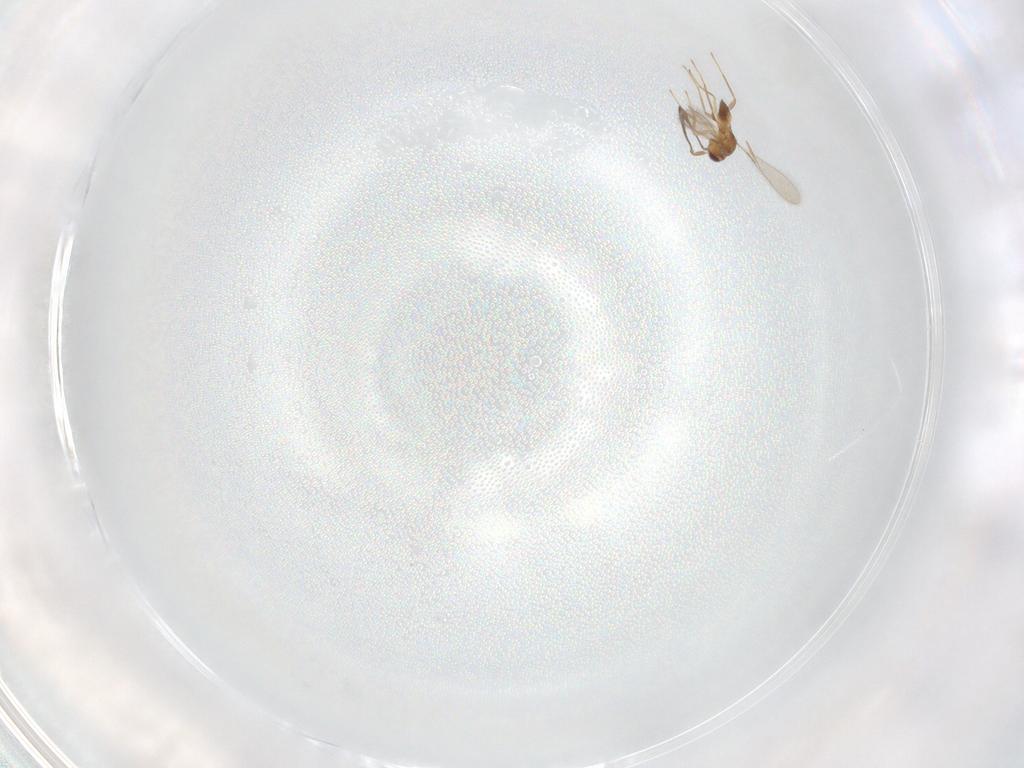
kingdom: Animalia
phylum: Arthropoda
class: Insecta
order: Hymenoptera
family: Mymaridae
